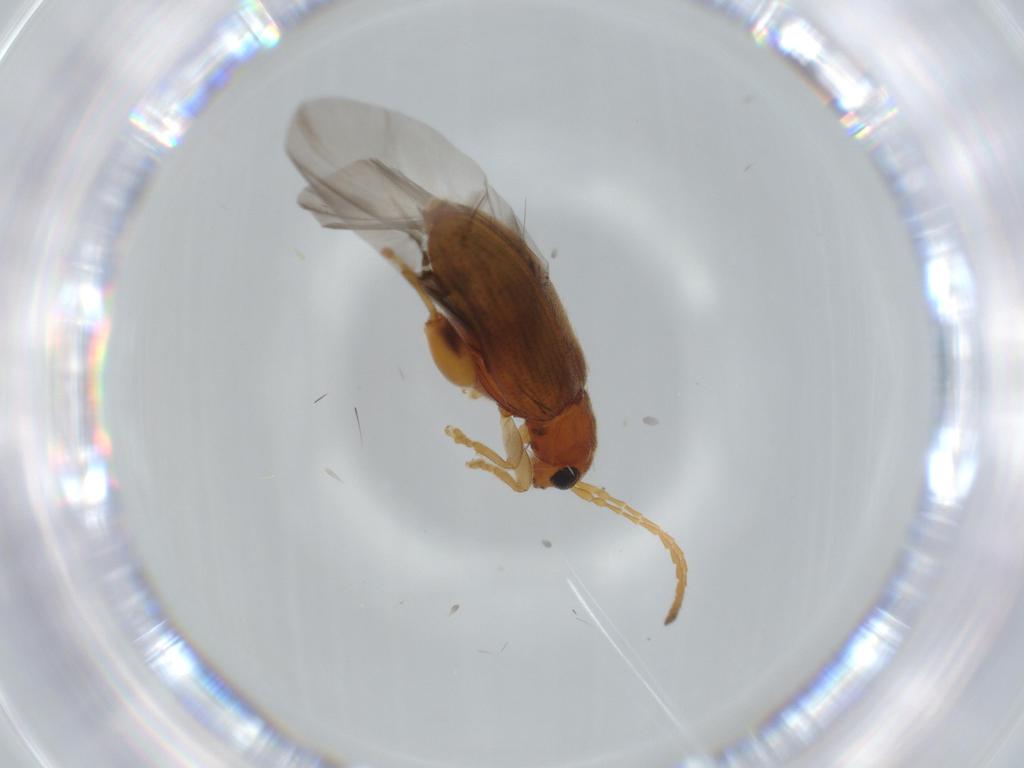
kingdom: Animalia
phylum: Arthropoda
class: Insecta
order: Coleoptera
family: Chrysomelidae
